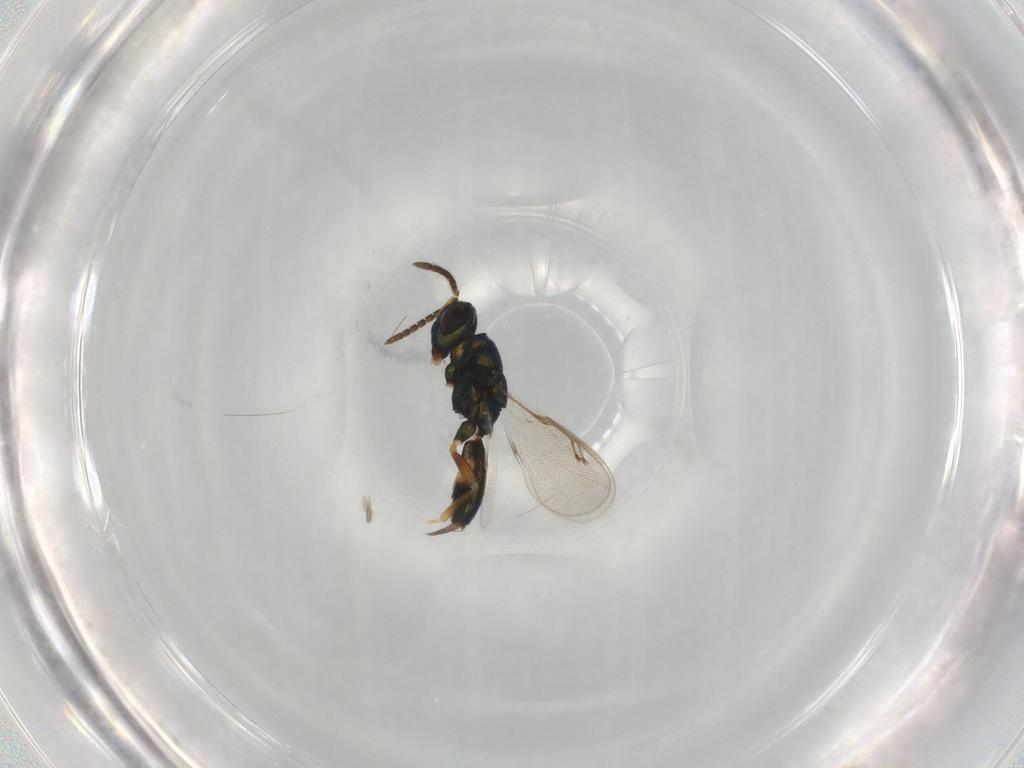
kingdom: Animalia
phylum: Arthropoda
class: Insecta
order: Hymenoptera
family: Pteromalidae
